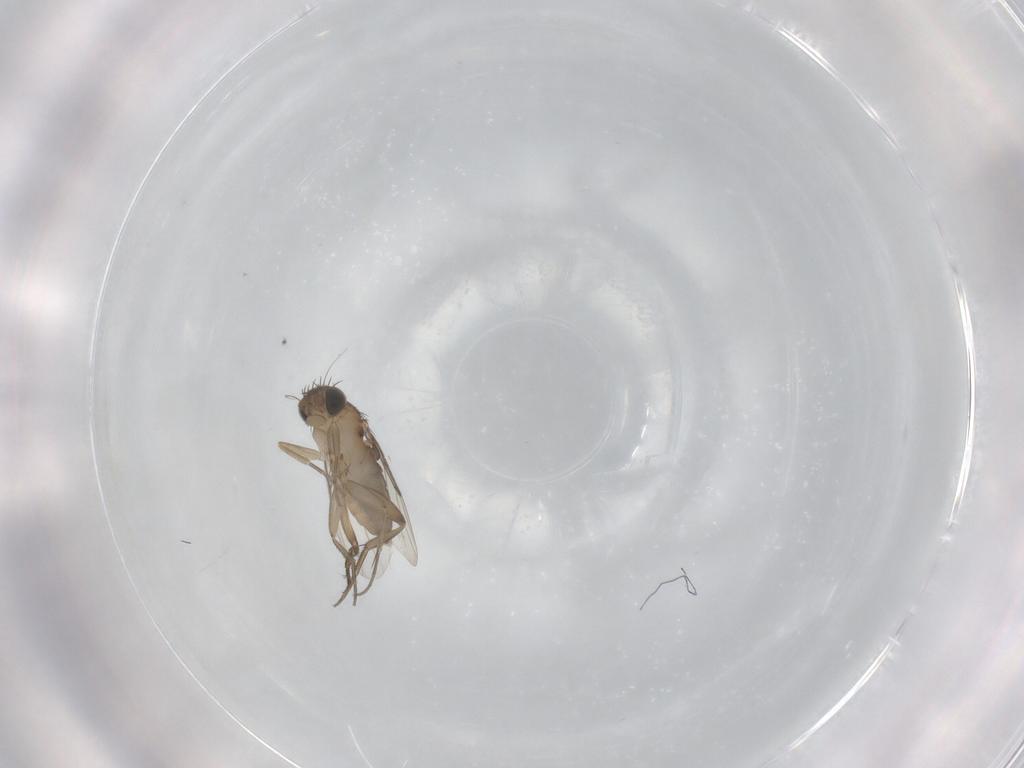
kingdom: Animalia
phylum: Arthropoda
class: Insecta
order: Diptera
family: Phoridae
